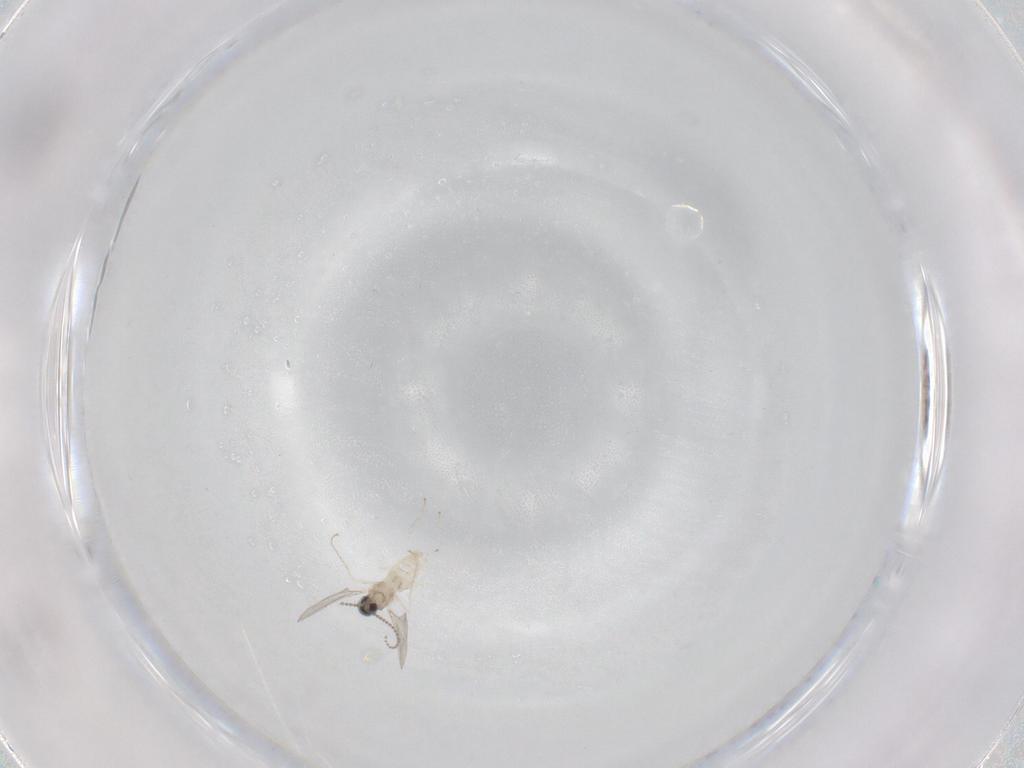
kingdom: Animalia
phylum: Arthropoda
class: Insecta
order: Diptera
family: Cecidomyiidae
